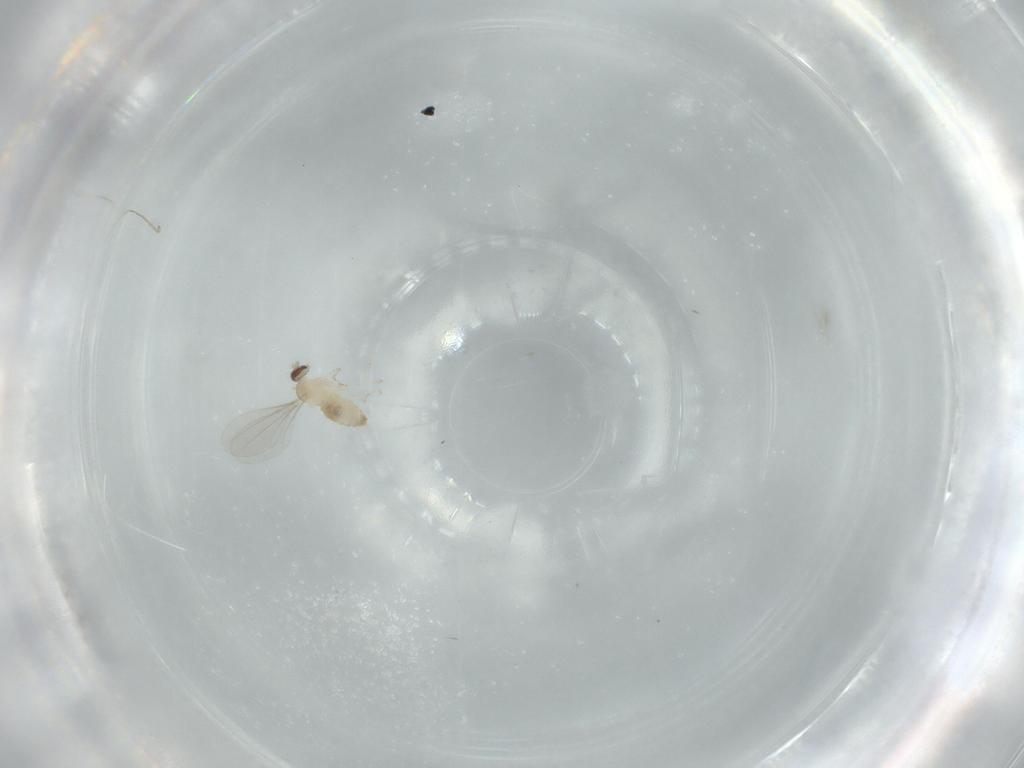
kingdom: Animalia
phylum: Arthropoda
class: Insecta
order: Diptera
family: Cecidomyiidae
